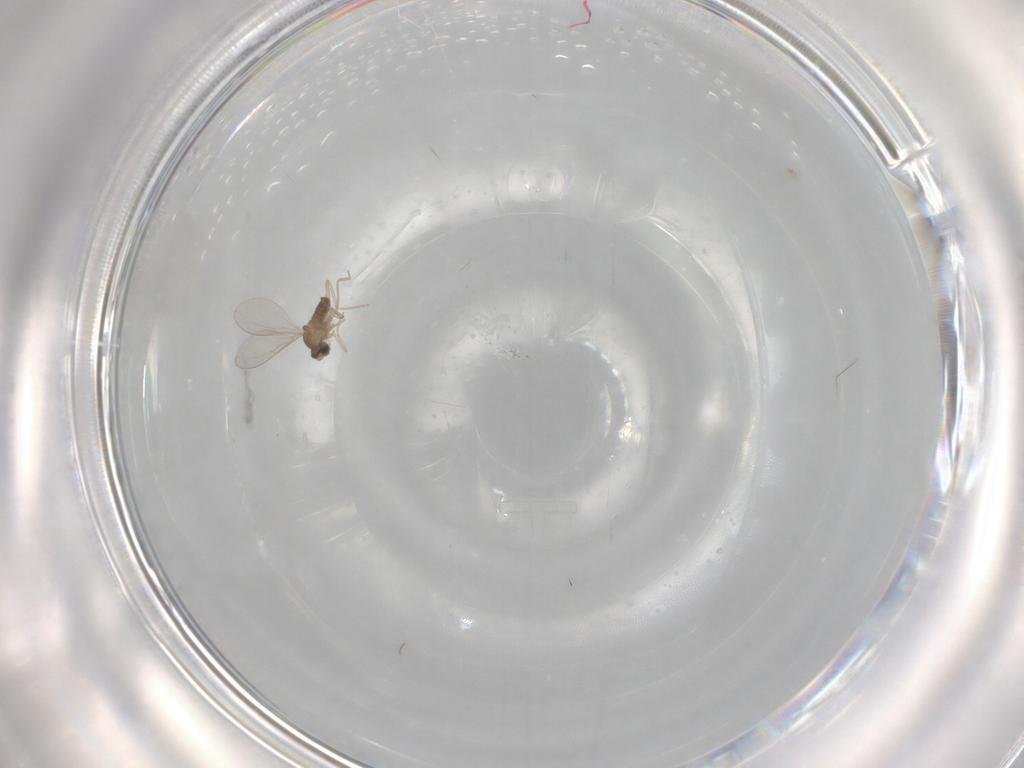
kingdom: Animalia
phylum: Arthropoda
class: Insecta
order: Diptera
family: Cecidomyiidae
